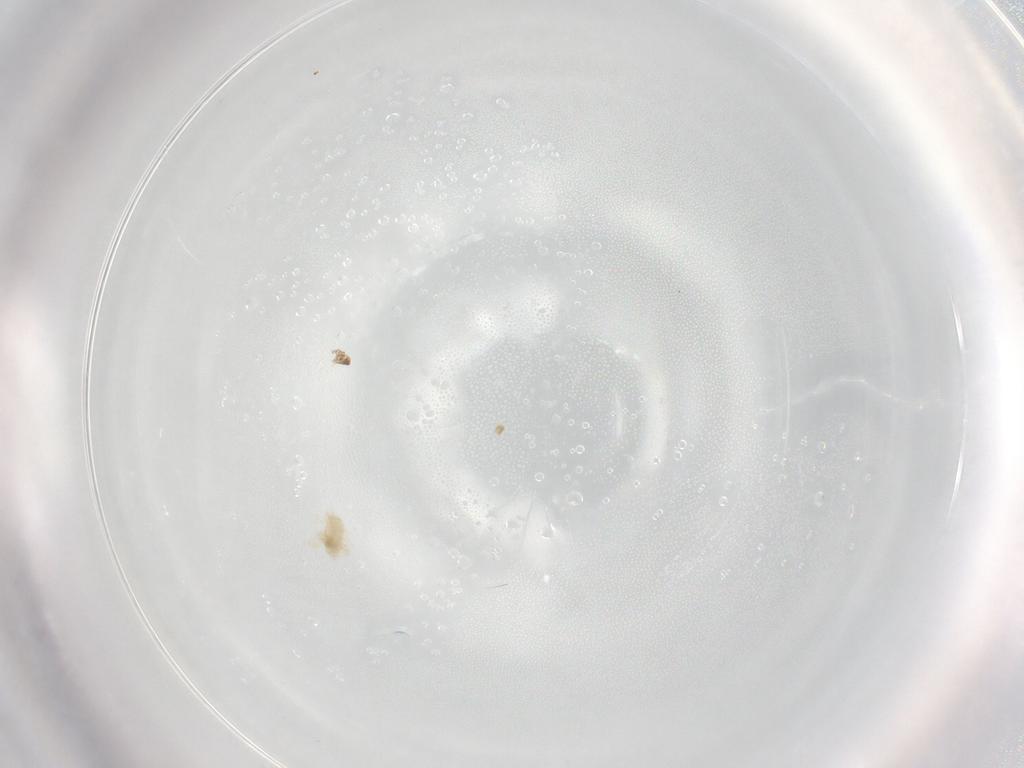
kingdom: Animalia
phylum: Arthropoda
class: Arachnida
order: Trombidiformes
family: Eupodidae
